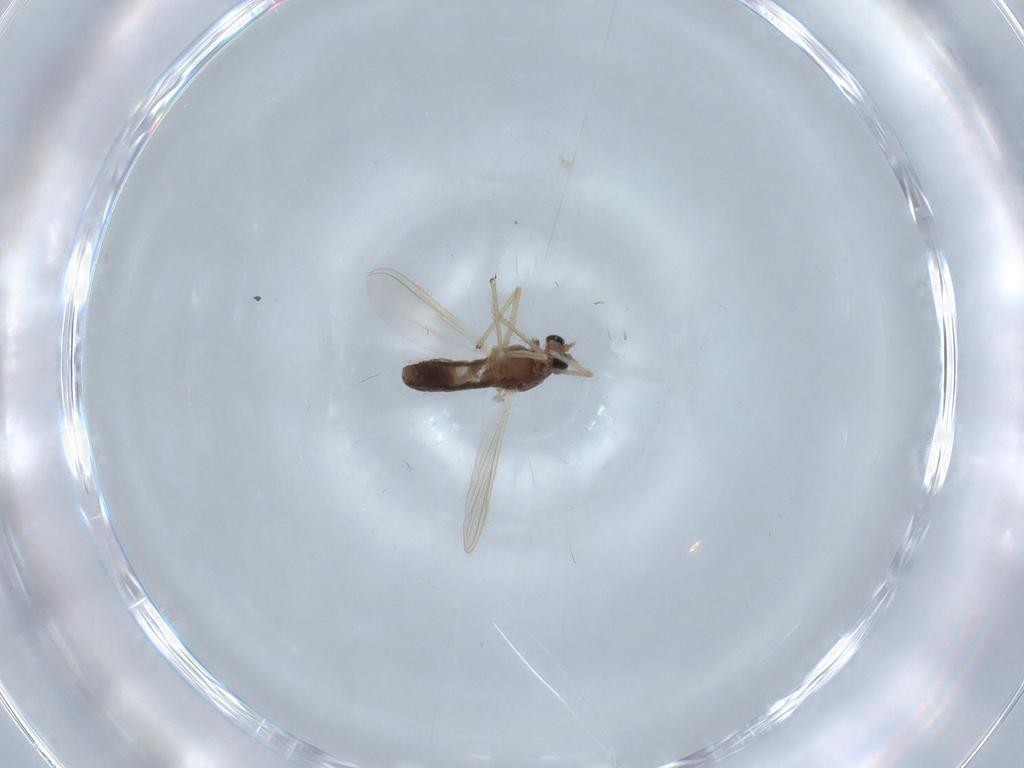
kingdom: Animalia
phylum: Arthropoda
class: Insecta
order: Diptera
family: Chironomidae
